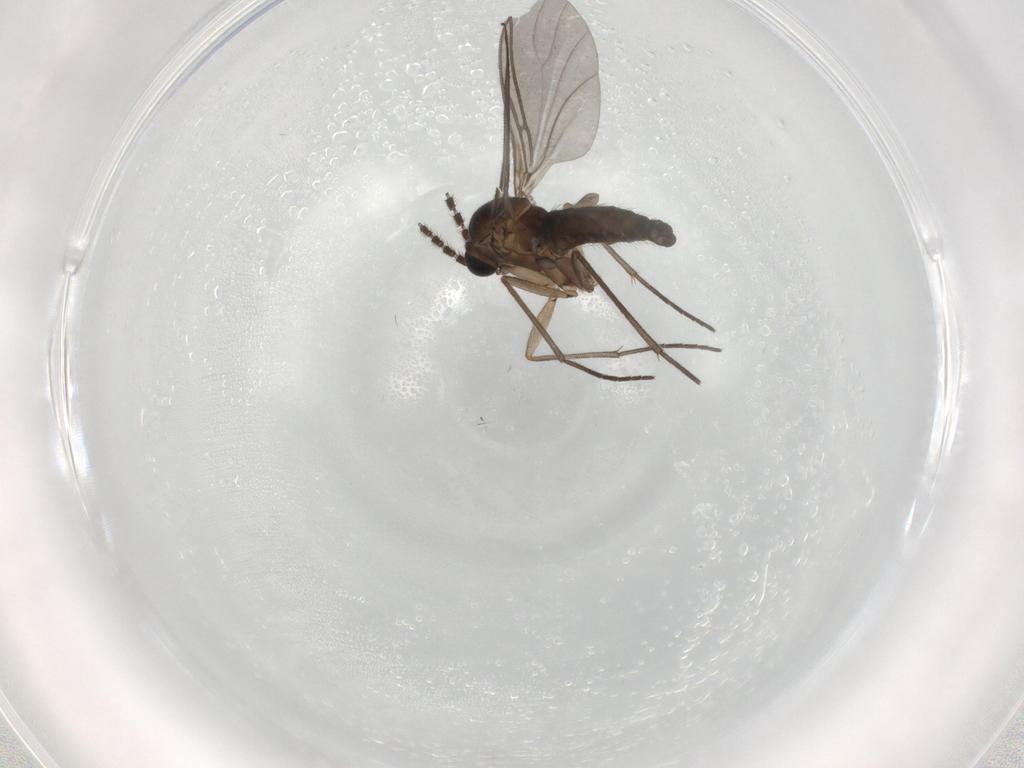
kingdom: Animalia
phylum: Arthropoda
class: Insecta
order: Diptera
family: Sciaridae
